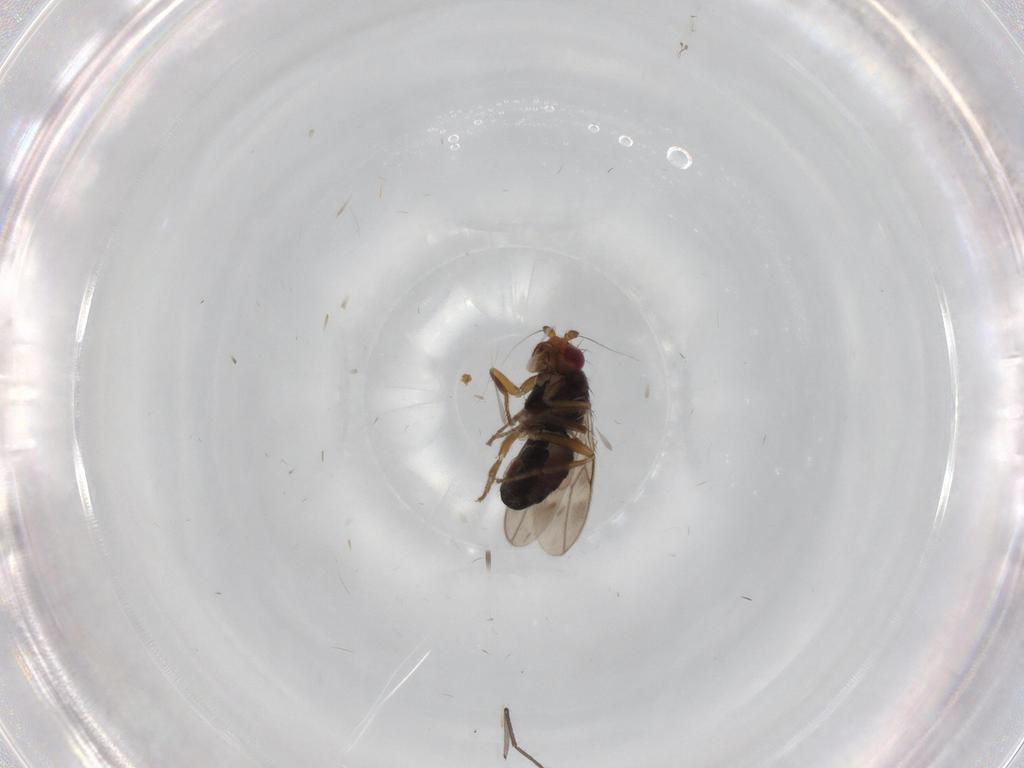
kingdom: Animalia
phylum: Arthropoda
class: Insecta
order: Diptera
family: Sphaeroceridae
